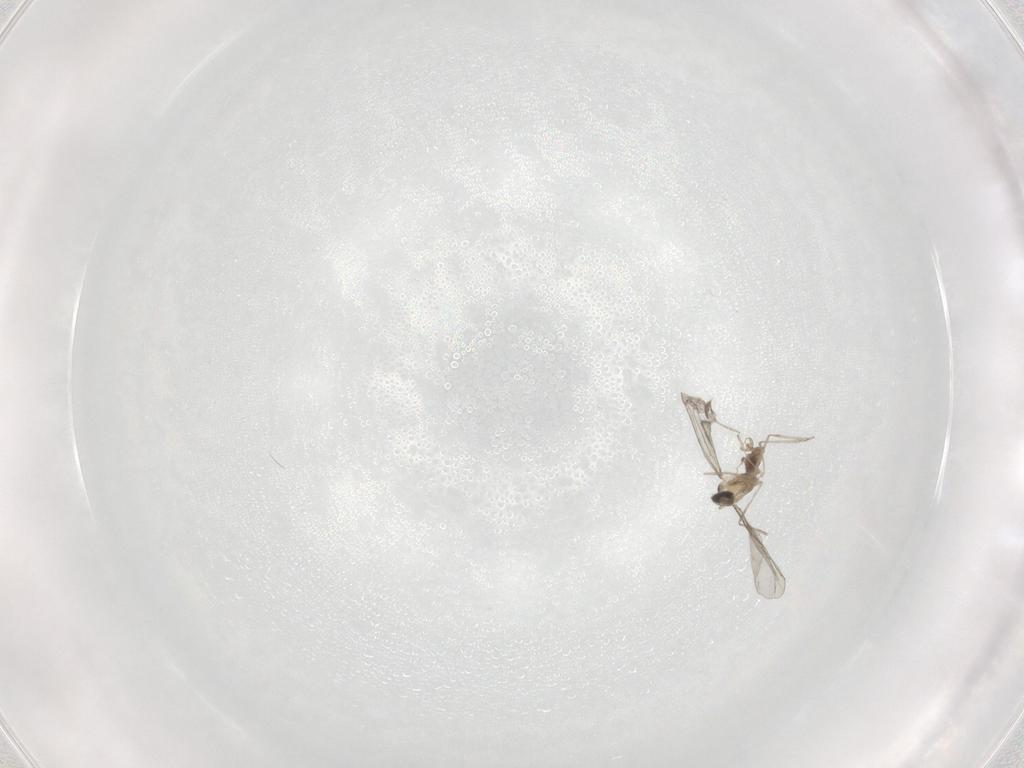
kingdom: Animalia
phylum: Arthropoda
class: Insecta
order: Diptera
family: Cecidomyiidae
